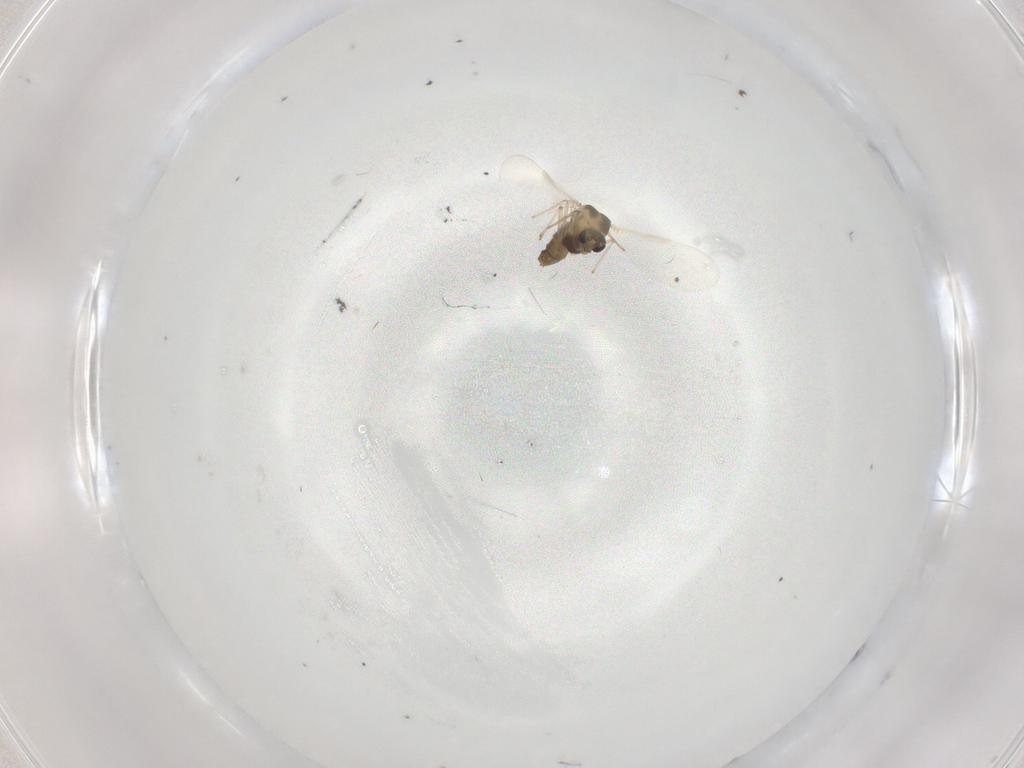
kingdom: Animalia
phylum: Arthropoda
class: Insecta
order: Diptera
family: Chironomidae
